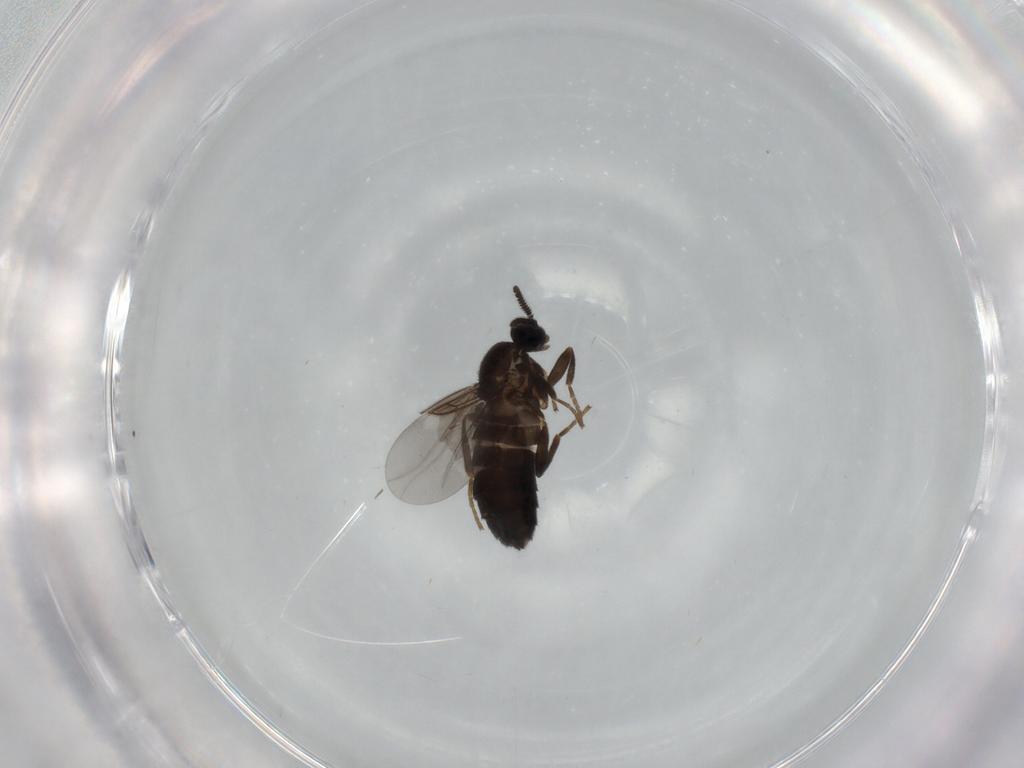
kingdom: Animalia
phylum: Arthropoda
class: Insecta
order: Diptera
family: Scatopsidae
